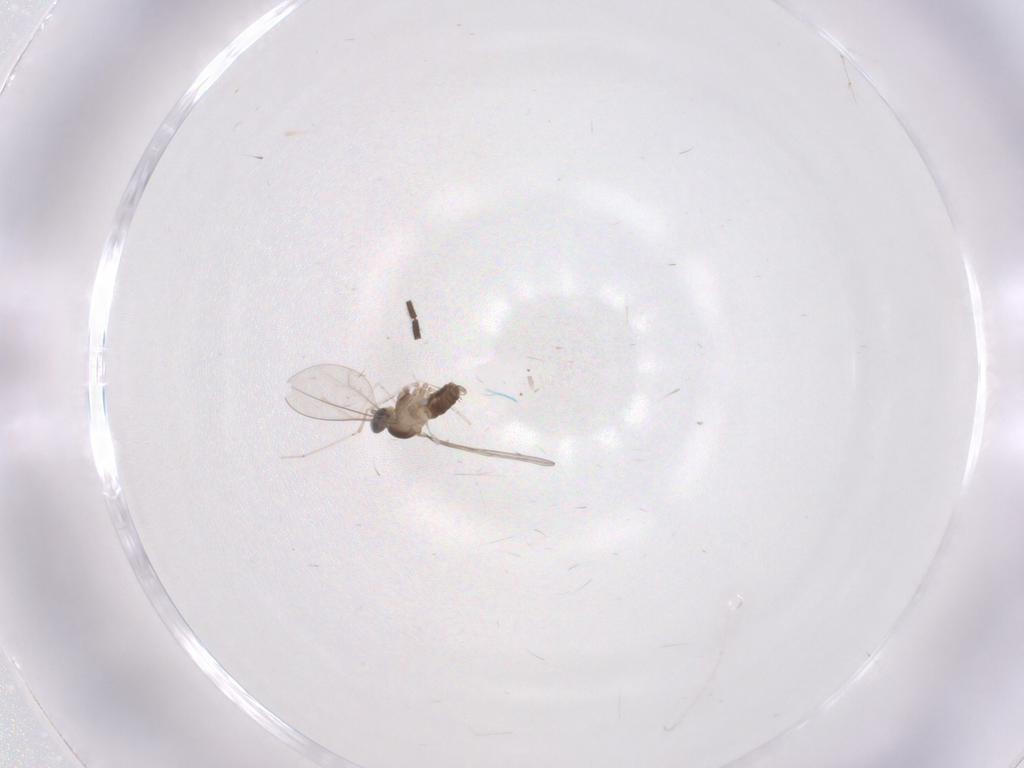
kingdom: Animalia
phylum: Arthropoda
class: Insecta
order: Diptera
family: Cecidomyiidae
